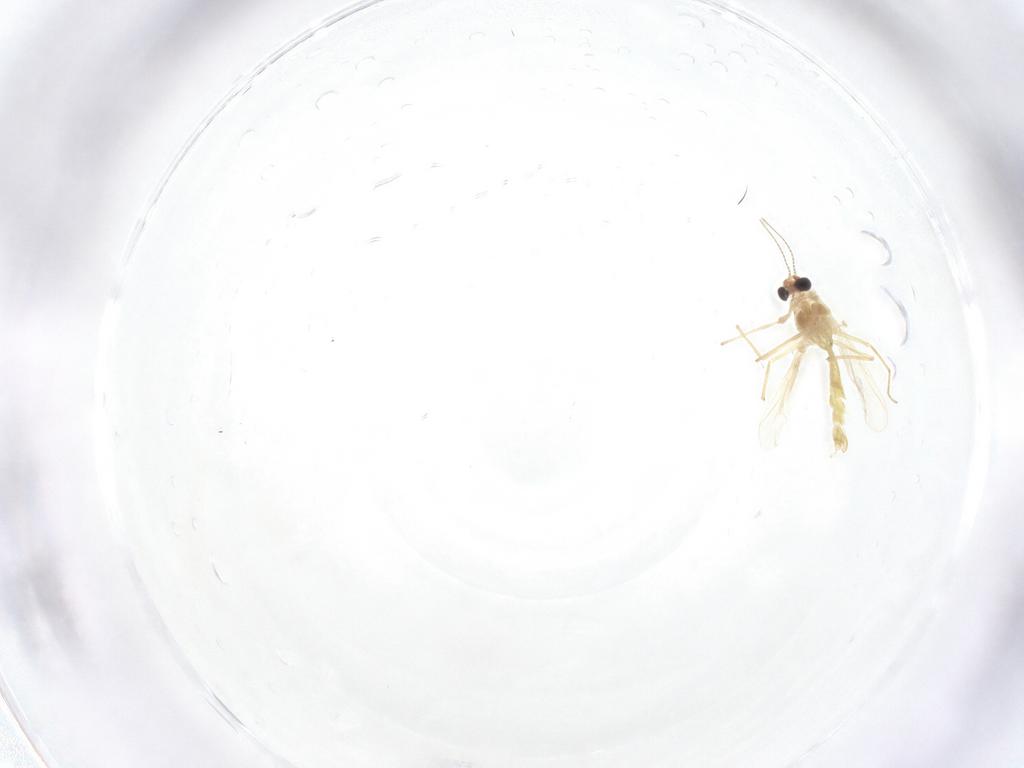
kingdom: Animalia
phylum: Arthropoda
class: Insecta
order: Diptera
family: Chironomidae
